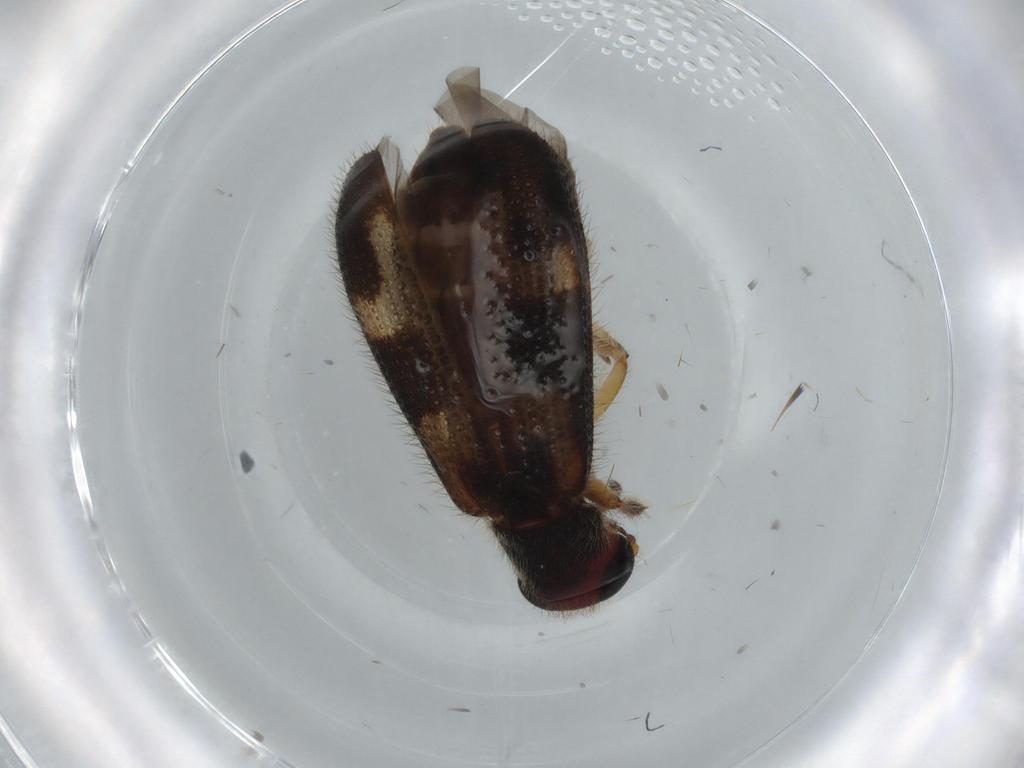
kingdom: Animalia
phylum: Arthropoda
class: Insecta
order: Coleoptera
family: Cleridae
